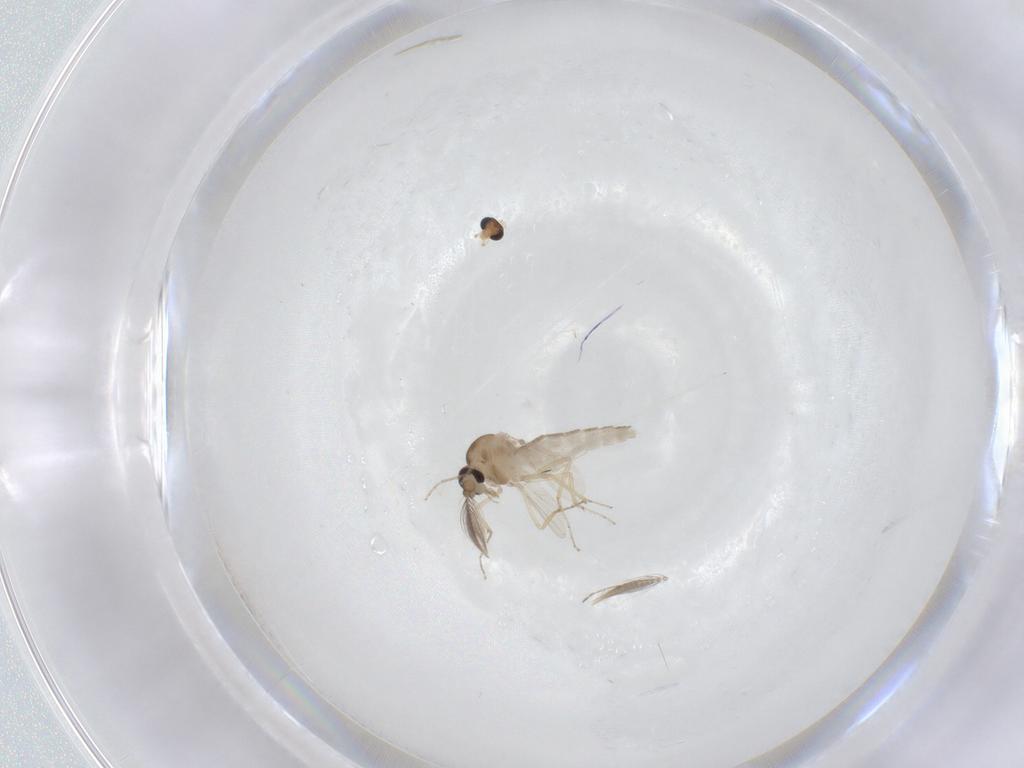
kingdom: Animalia
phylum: Arthropoda
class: Insecta
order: Diptera
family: Ceratopogonidae
